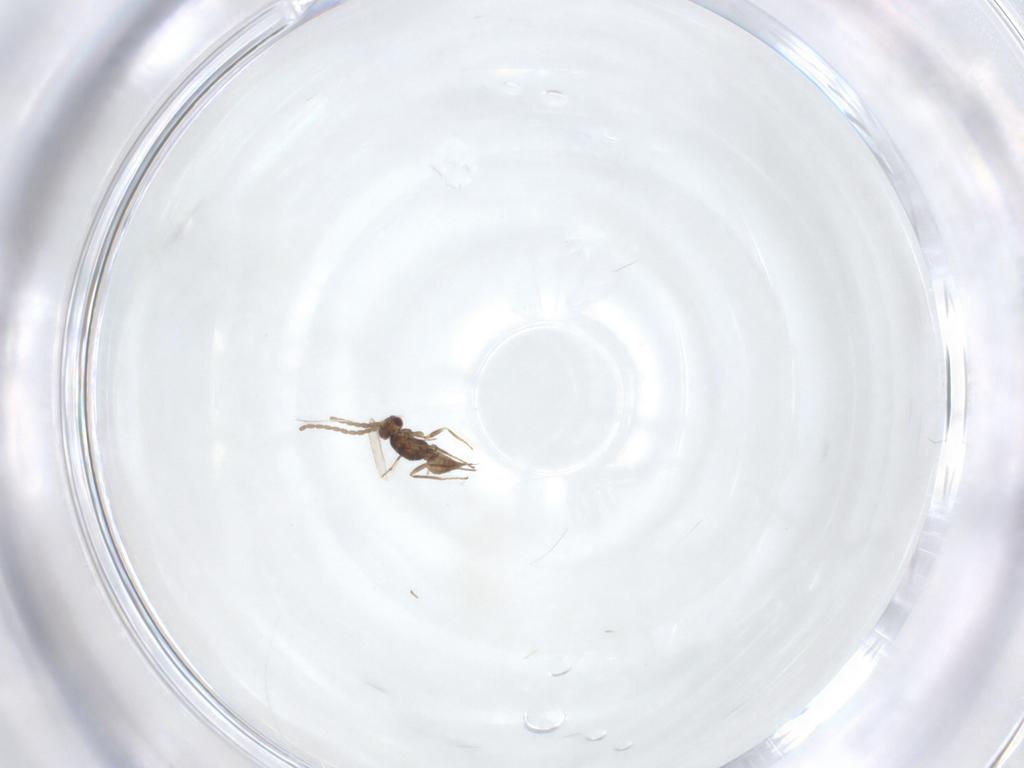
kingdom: Animalia
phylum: Arthropoda
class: Insecta
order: Hymenoptera
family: Mymaridae
